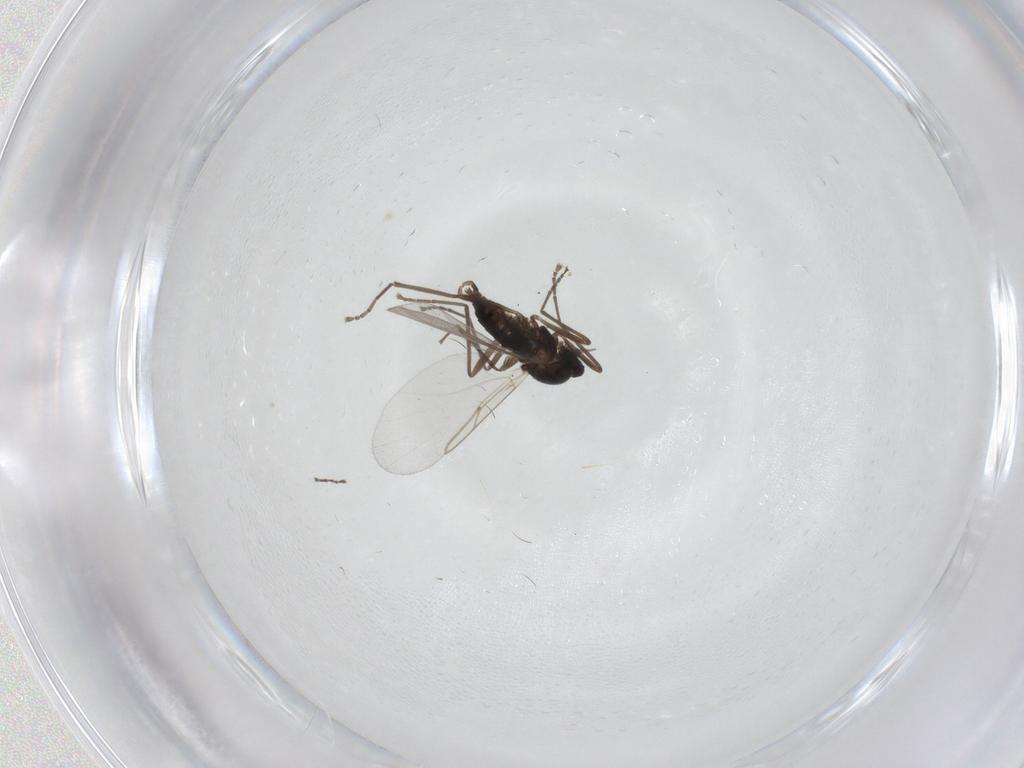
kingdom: Animalia
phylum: Arthropoda
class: Insecta
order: Diptera
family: Cecidomyiidae
